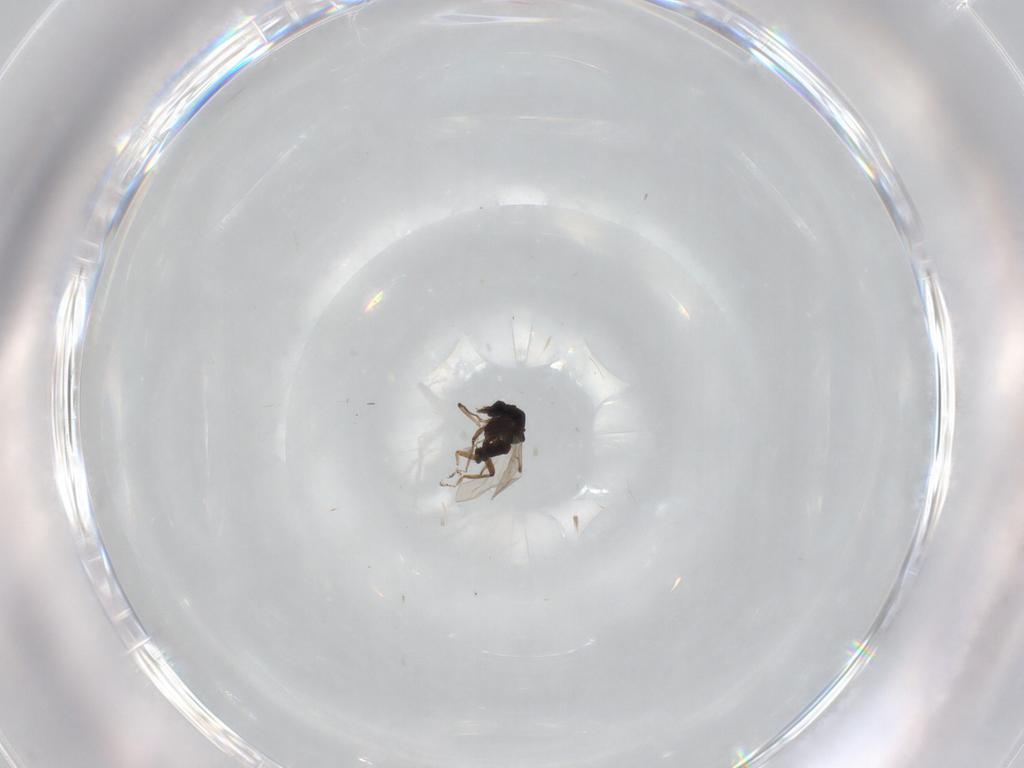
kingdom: Animalia
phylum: Arthropoda
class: Insecta
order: Diptera
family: Ceratopogonidae
